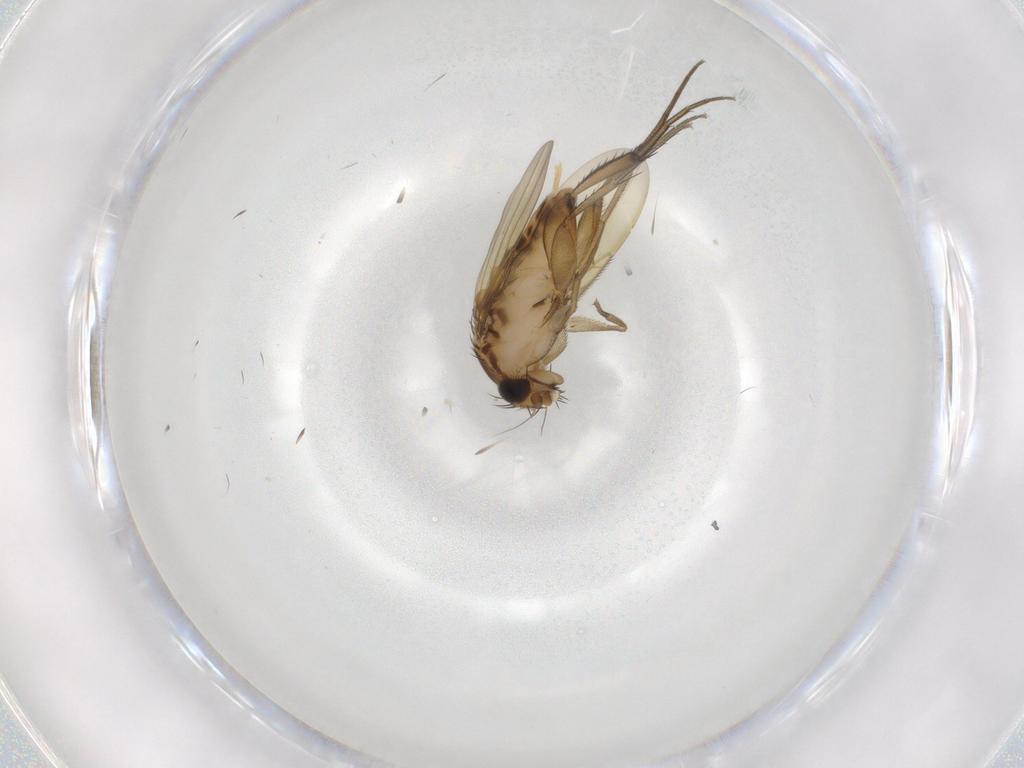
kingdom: Animalia
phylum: Arthropoda
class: Insecta
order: Diptera
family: Phoridae
